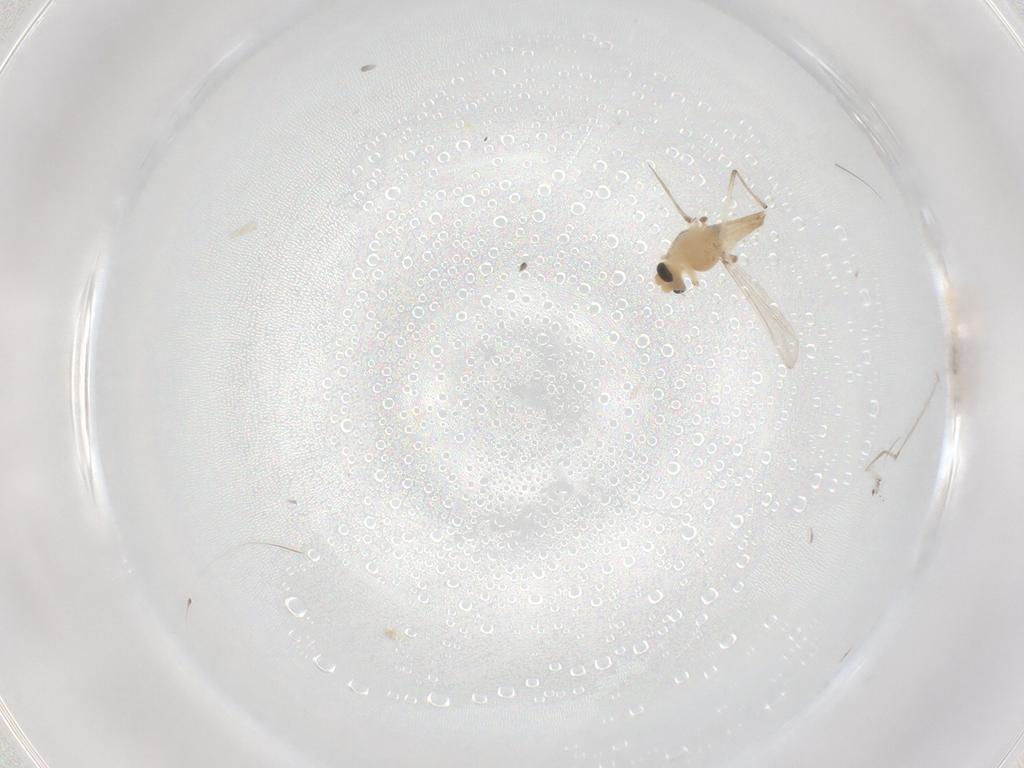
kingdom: Animalia
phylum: Arthropoda
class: Insecta
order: Diptera
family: Chironomidae
